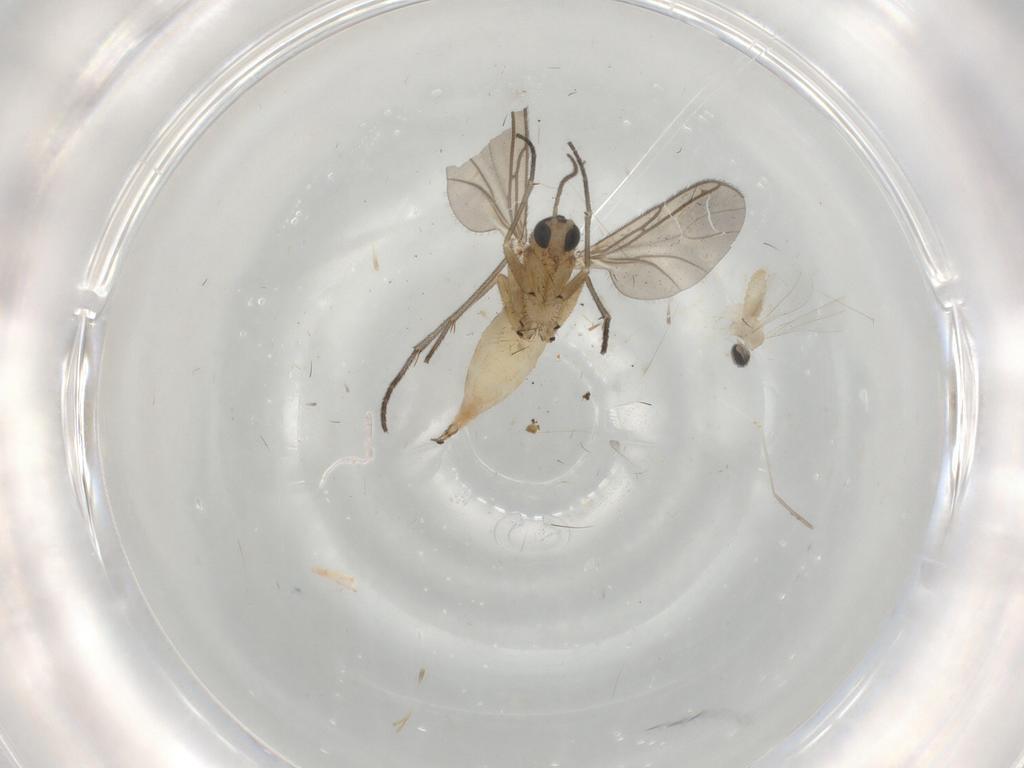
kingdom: Animalia
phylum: Arthropoda
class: Insecta
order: Diptera
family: Sciaridae
